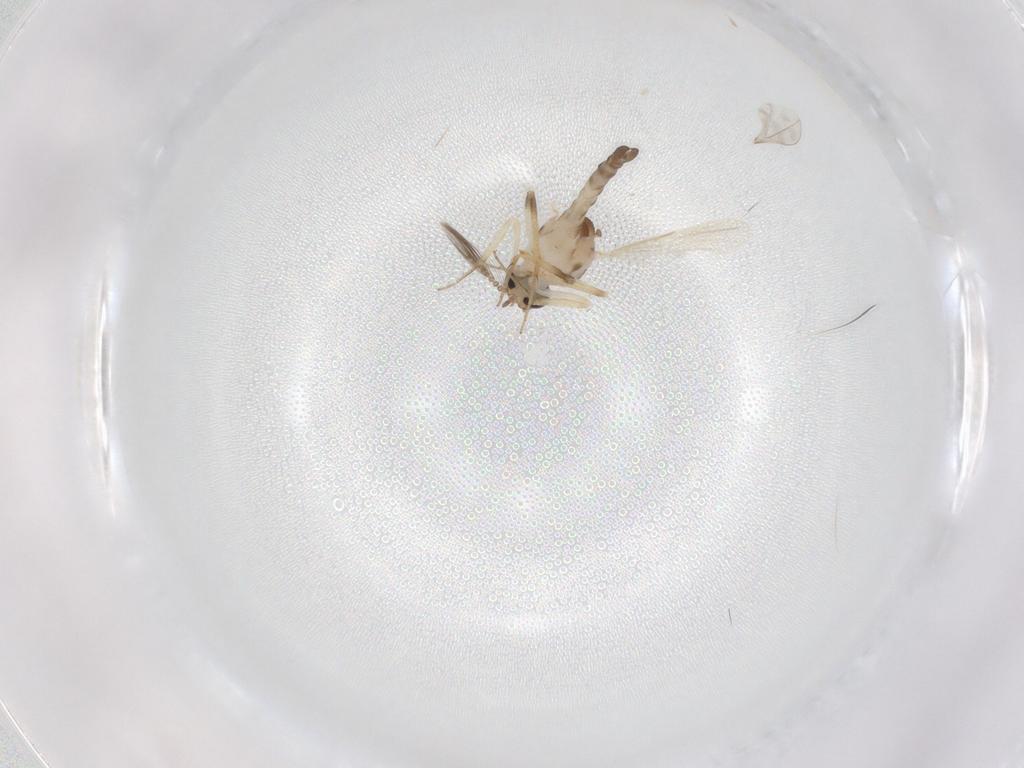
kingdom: Animalia
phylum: Arthropoda
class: Insecta
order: Diptera
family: Ceratopogonidae
